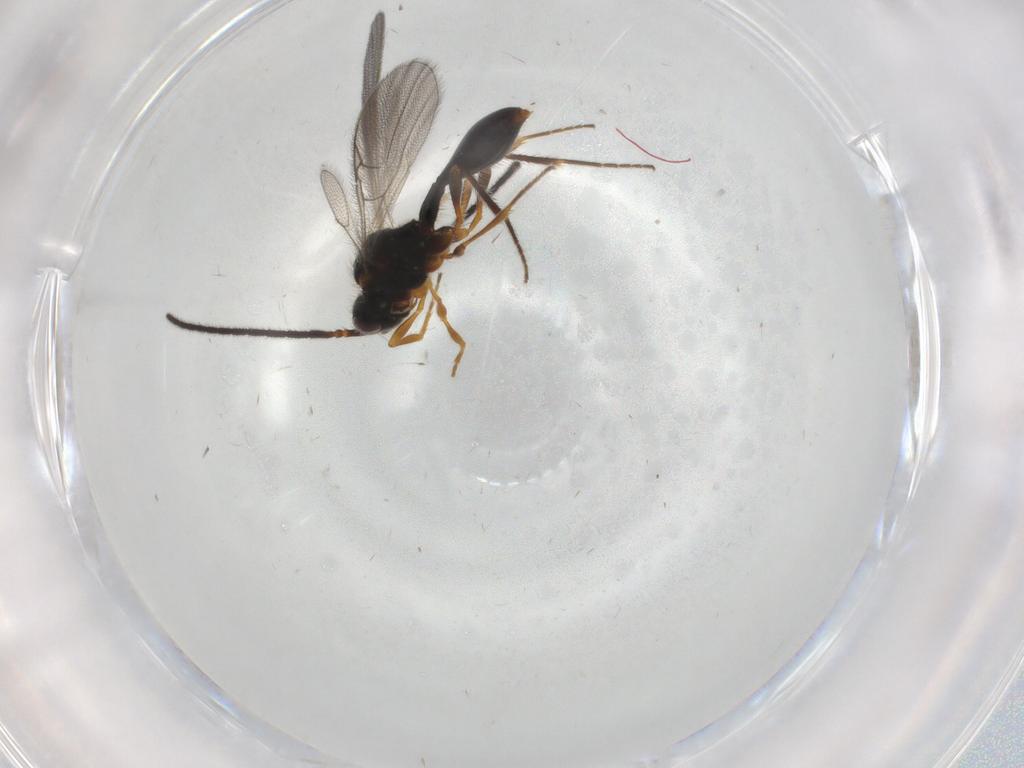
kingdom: Animalia
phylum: Arthropoda
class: Insecta
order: Hymenoptera
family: Diapriidae
